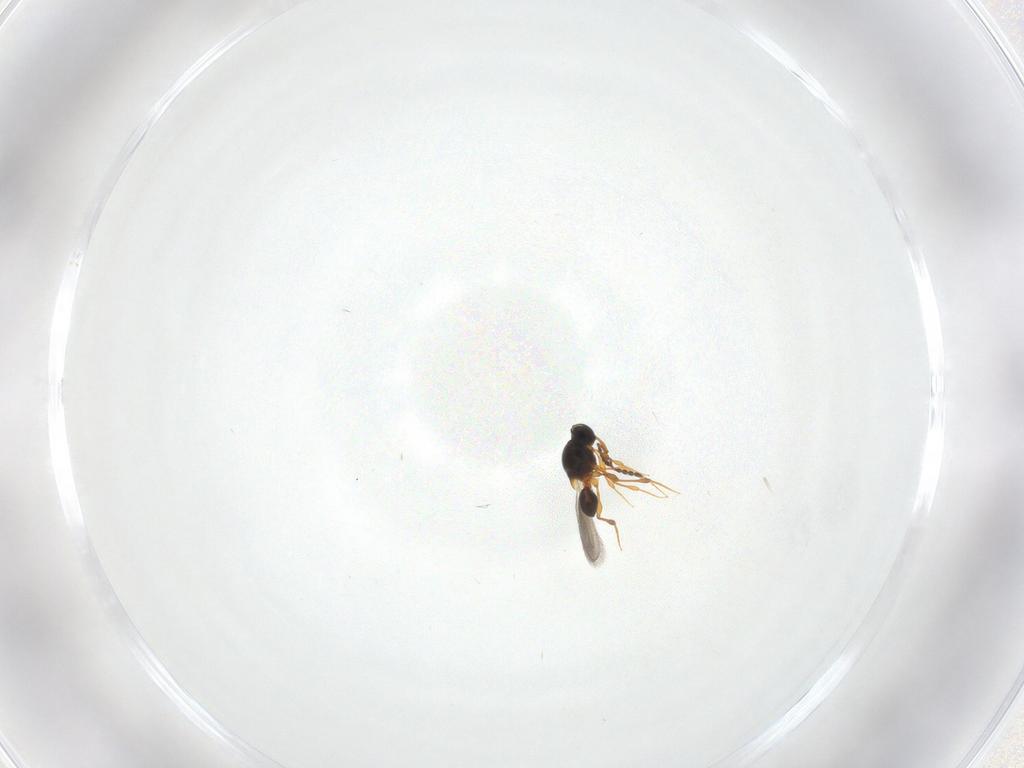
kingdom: Animalia
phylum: Arthropoda
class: Insecta
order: Hymenoptera
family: Platygastridae
